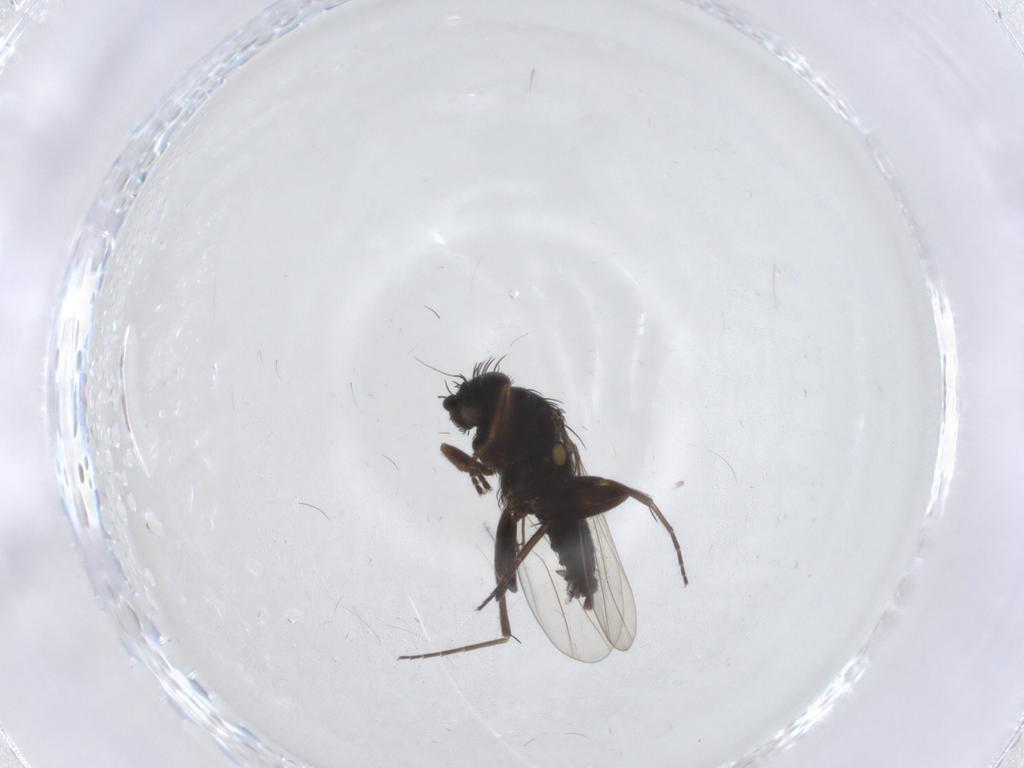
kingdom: Animalia
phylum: Arthropoda
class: Insecta
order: Diptera
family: Phoridae
